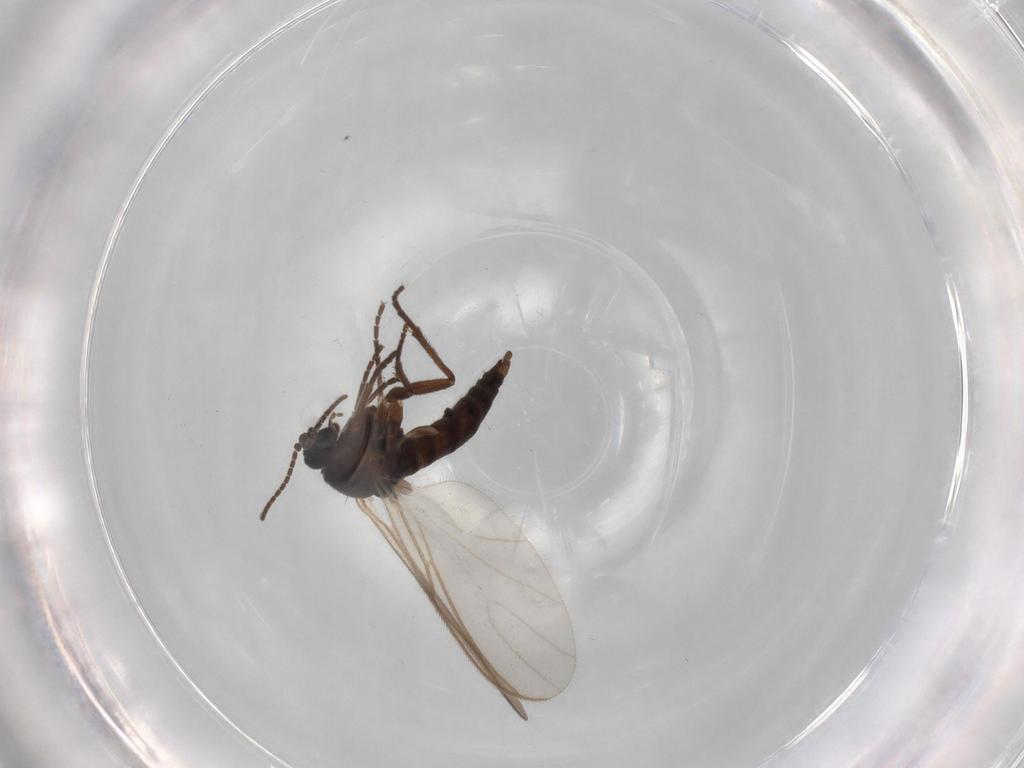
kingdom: Animalia
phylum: Arthropoda
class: Insecta
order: Diptera
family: Sciaridae
